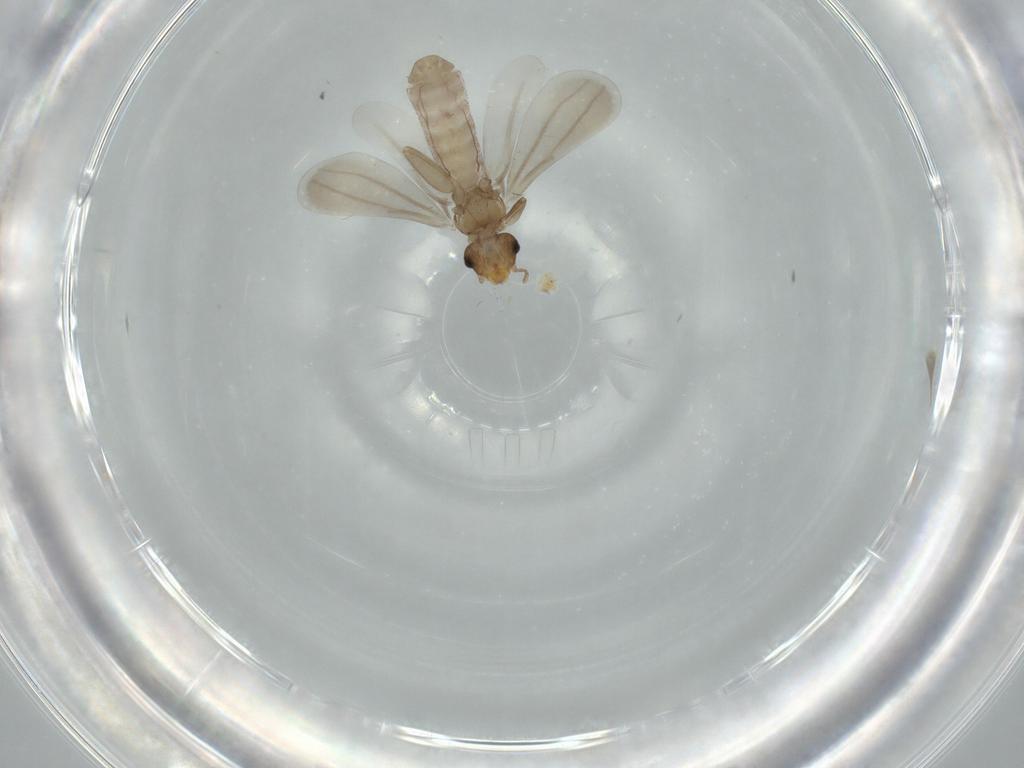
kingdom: Animalia
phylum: Arthropoda
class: Insecta
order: Psocodea
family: Liposcelididae
